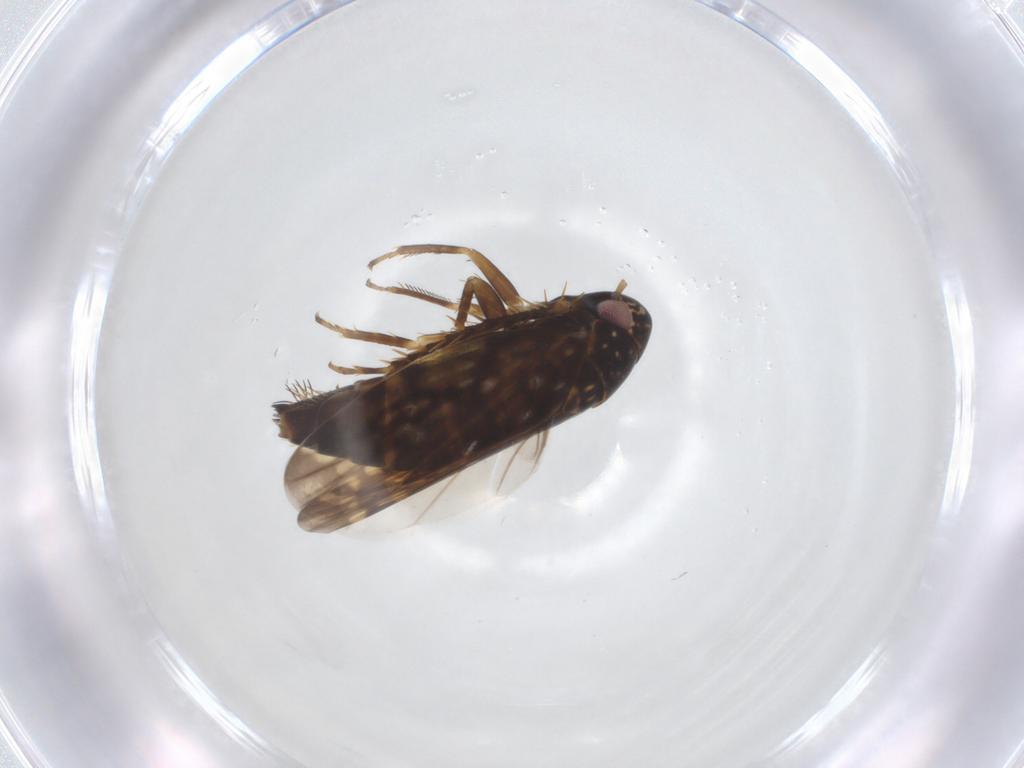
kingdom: Animalia
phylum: Arthropoda
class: Insecta
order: Hemiptera
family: Cicadellidae
